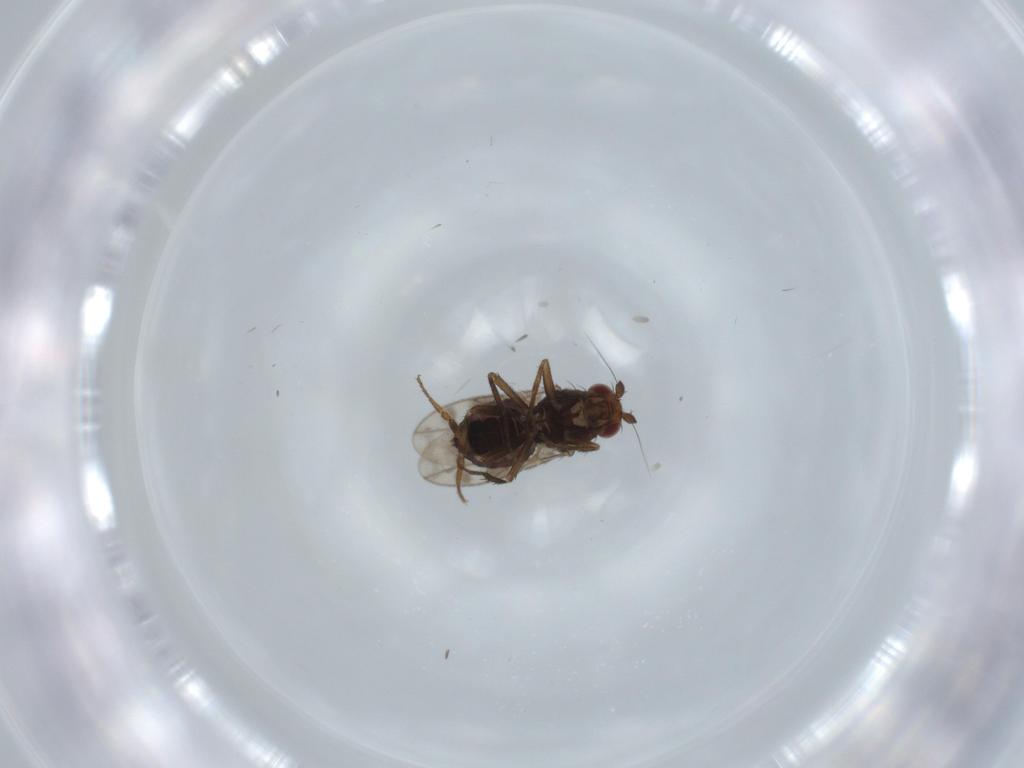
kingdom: Animalia
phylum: Arthropoda
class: Insecta
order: Diptera
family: Sphaeroceridae
